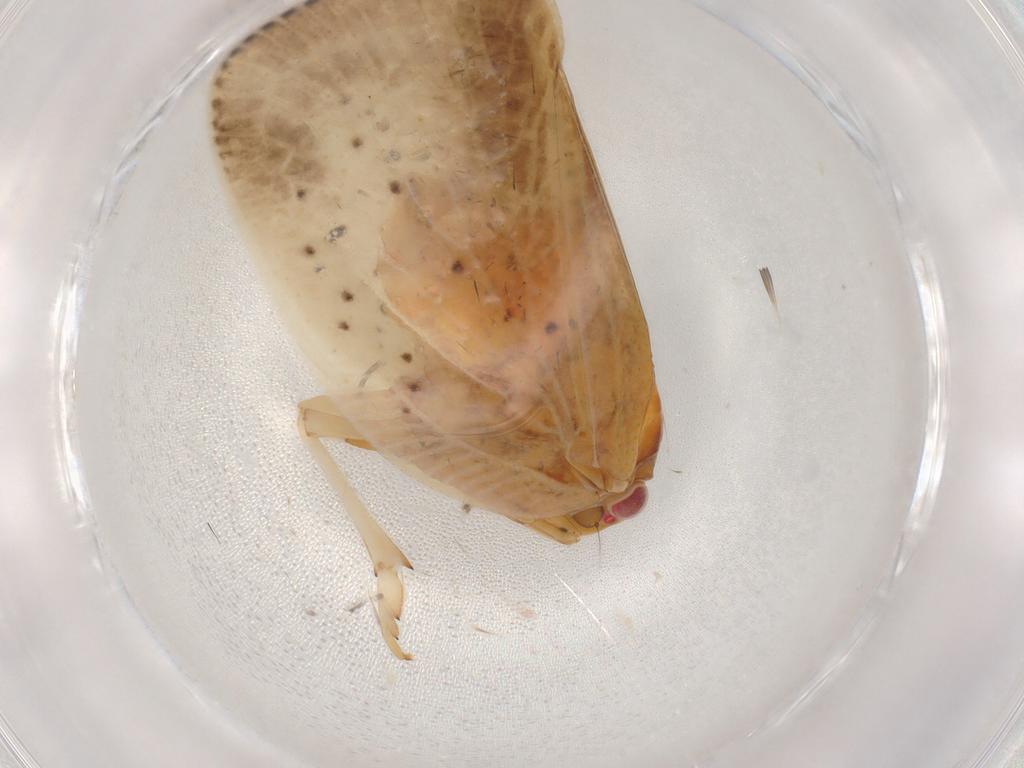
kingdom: Animalia
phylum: Arthropoda
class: Insecta
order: Hemiptera
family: Flatidae
